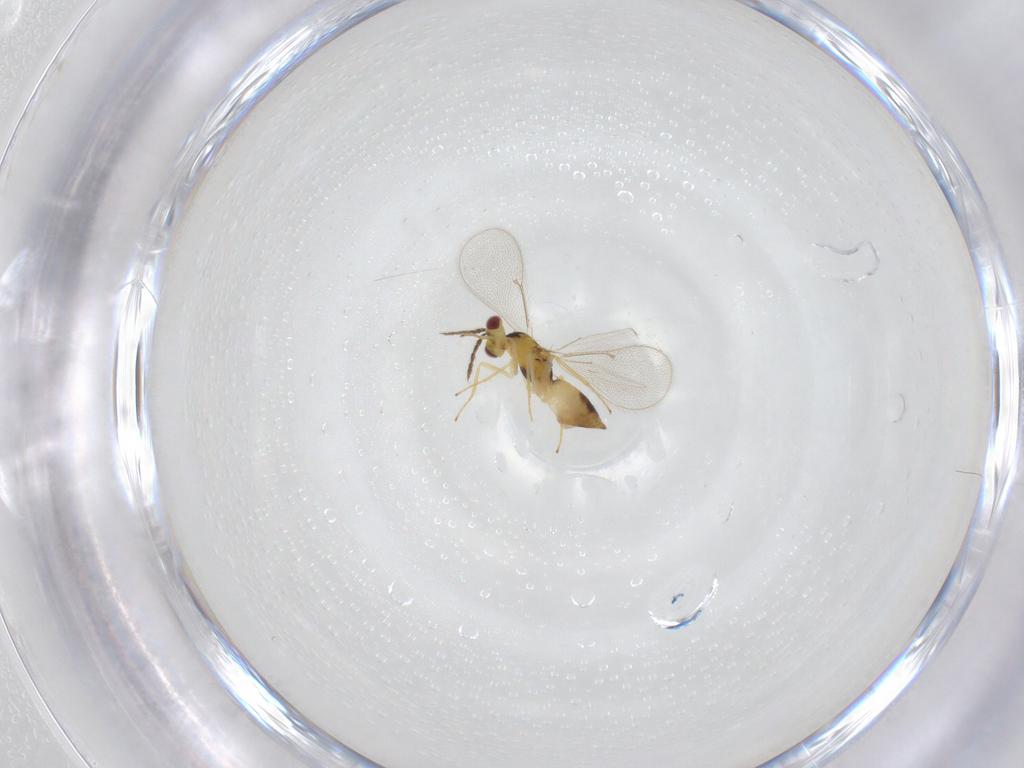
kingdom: Animalia
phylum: Arthropoda
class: Insecta
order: Hymenoptera
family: Eulophidae
